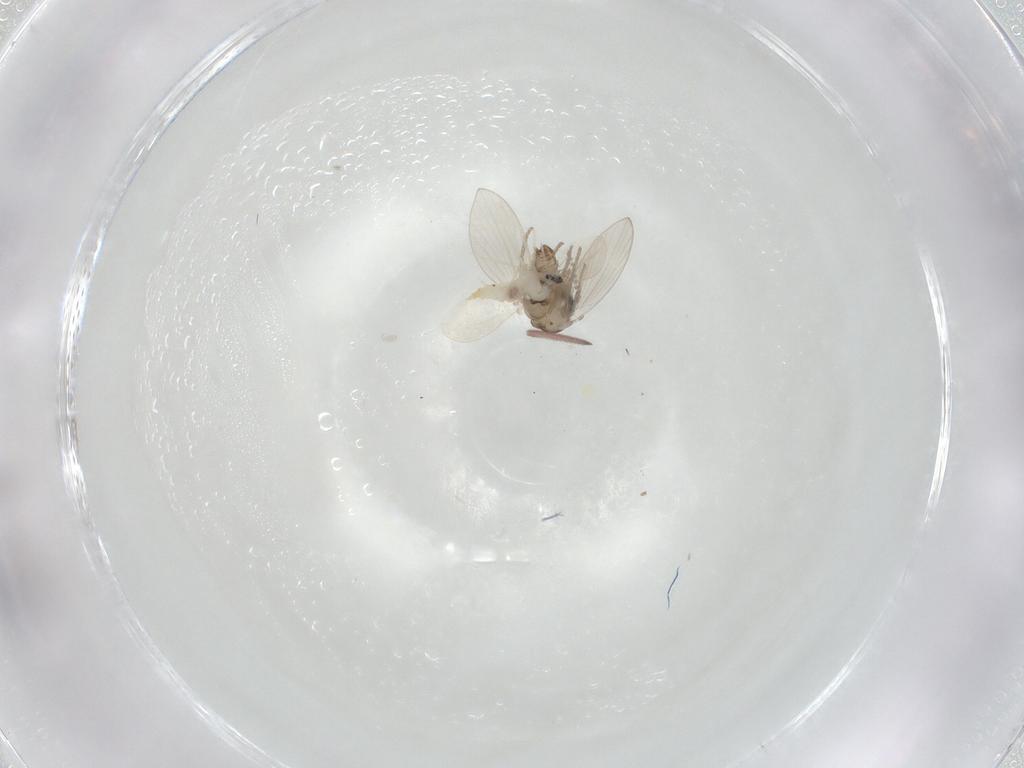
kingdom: Animalia
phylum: Arthropoda
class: Insecta
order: Diptera
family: Psychodidae
